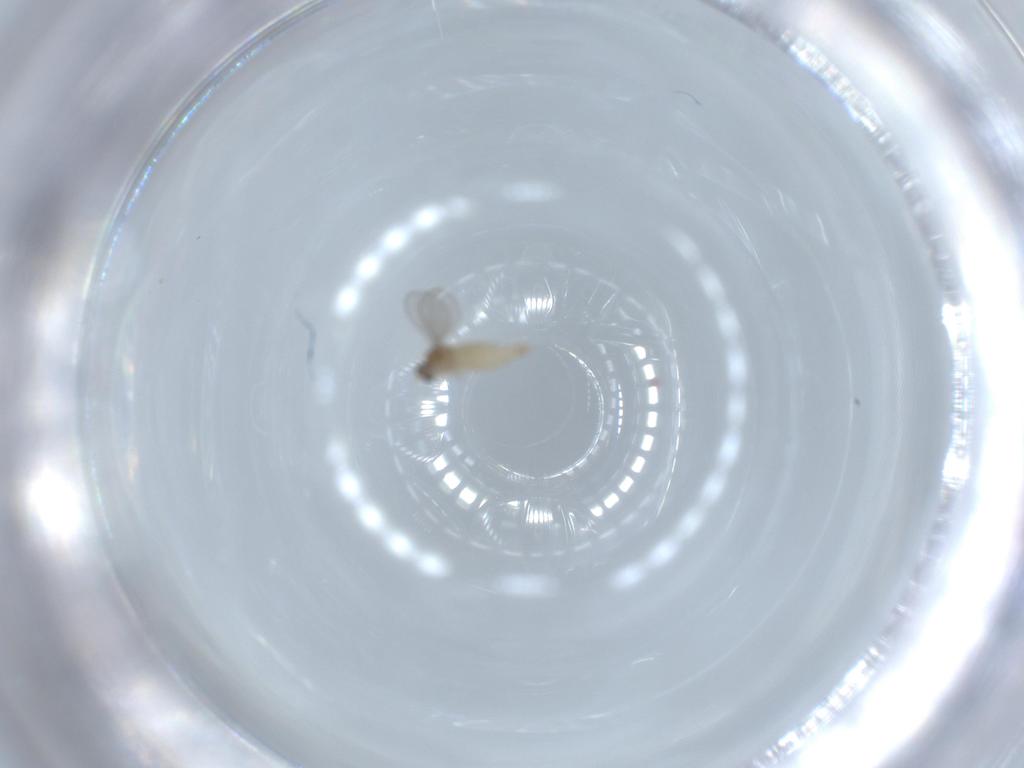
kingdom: Animalia
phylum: Arthropoda
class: Insecta
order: Diptera
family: Cecidomyiidae
